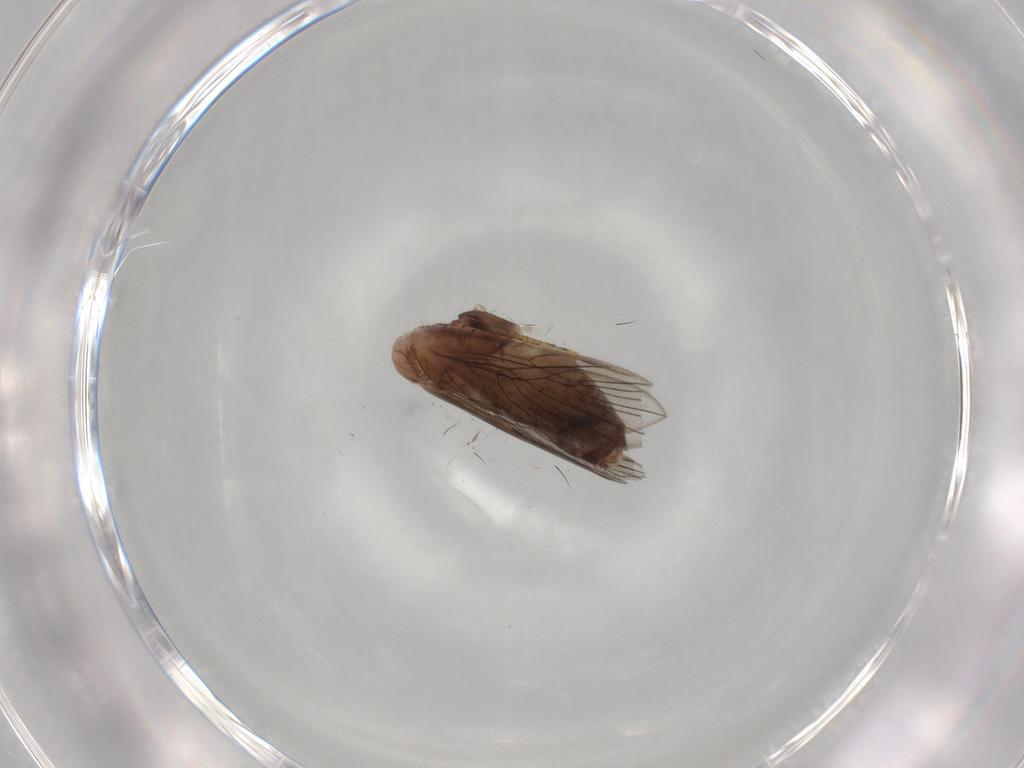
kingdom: Animalia
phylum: Arthropoda
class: Insecta
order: Psocodea
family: Lepidopsocidae
